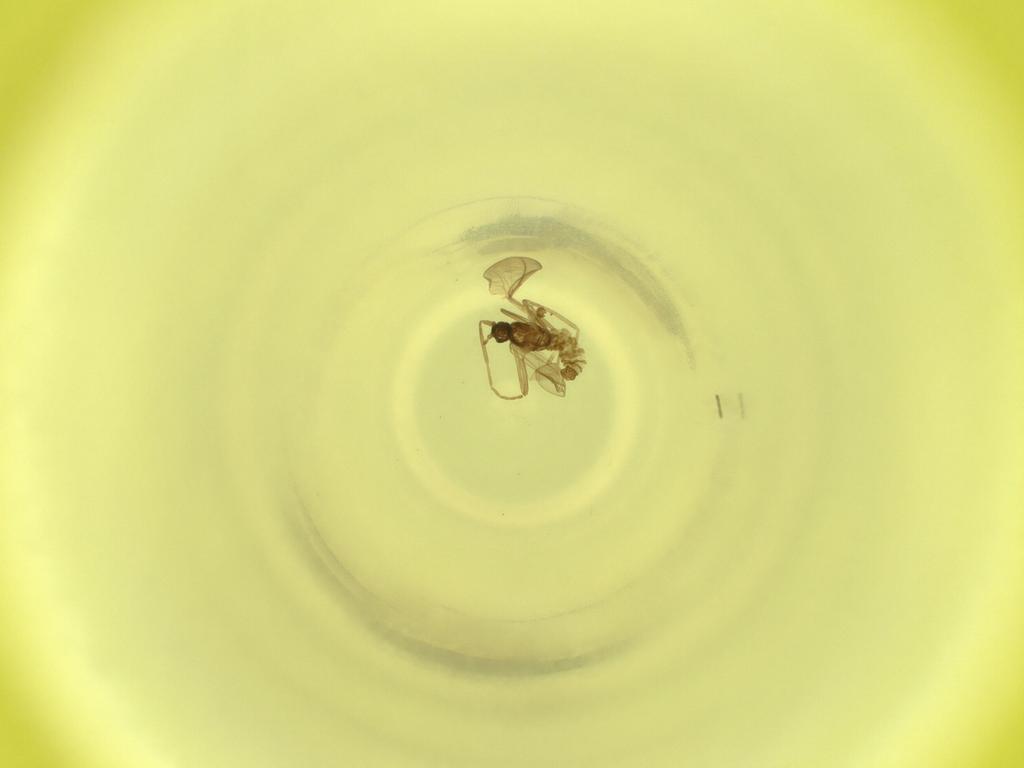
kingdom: Animalia
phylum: Arthropoda
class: Insecta
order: Diptera
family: Cecidomyiidae
